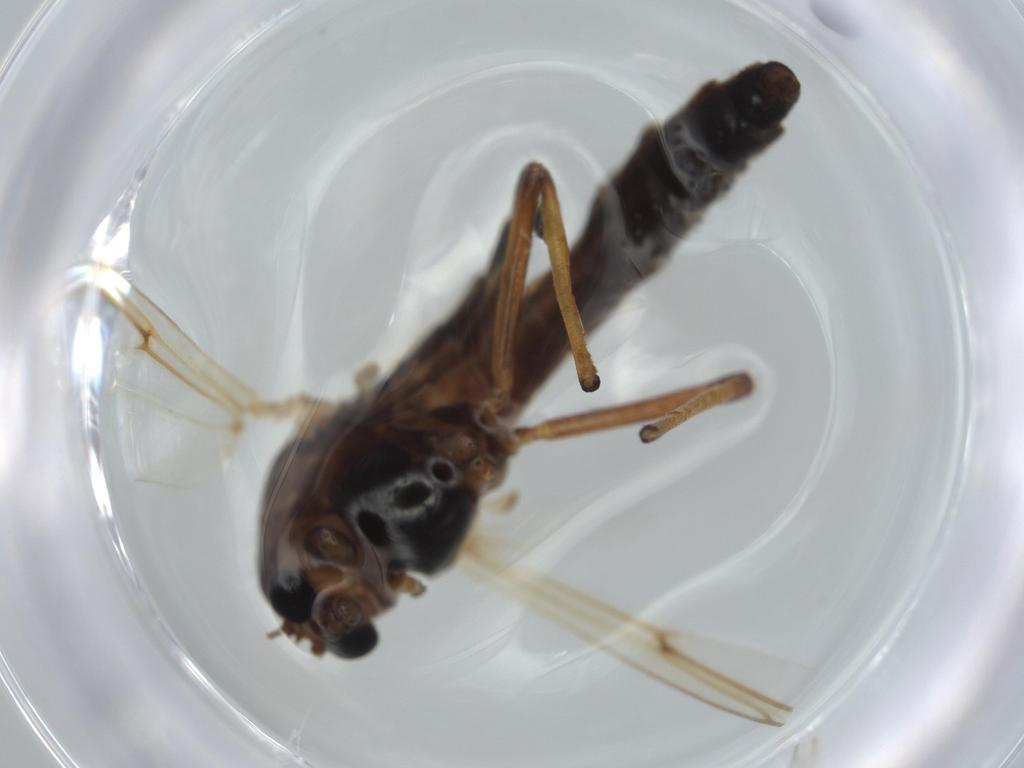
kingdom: Animalia
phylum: Arthropoda
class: Insecta
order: Diptera
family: Chironomidae
